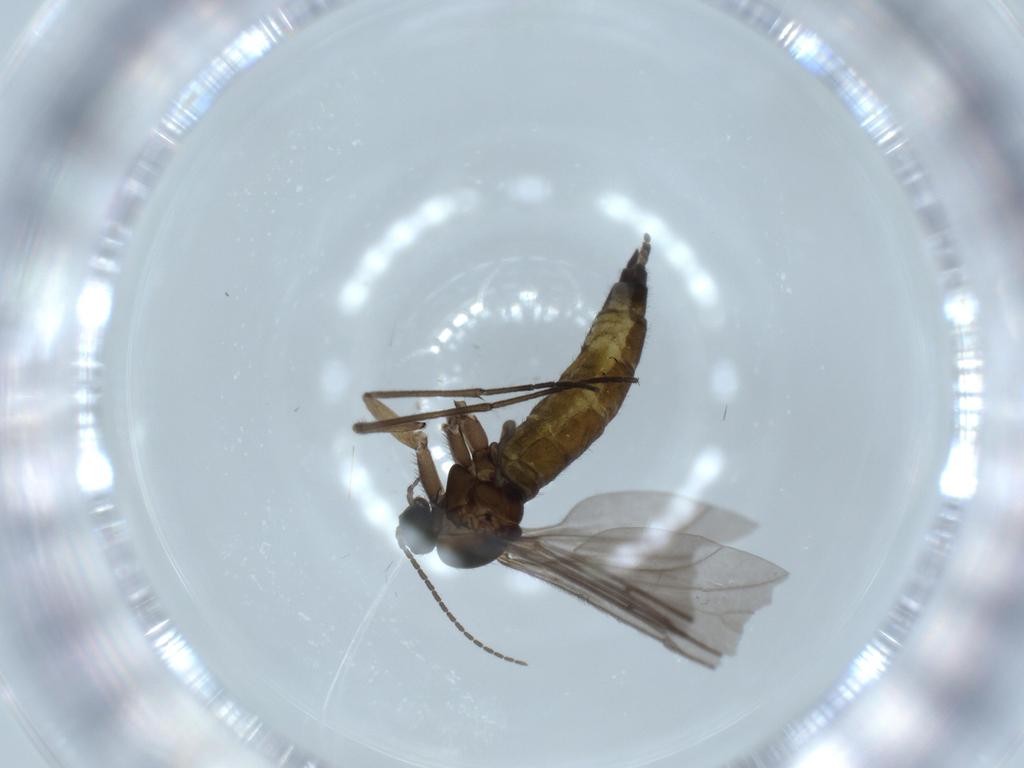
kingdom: Animalia
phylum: Arthropoda
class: Insecta
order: Diptera
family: Sciaridae
